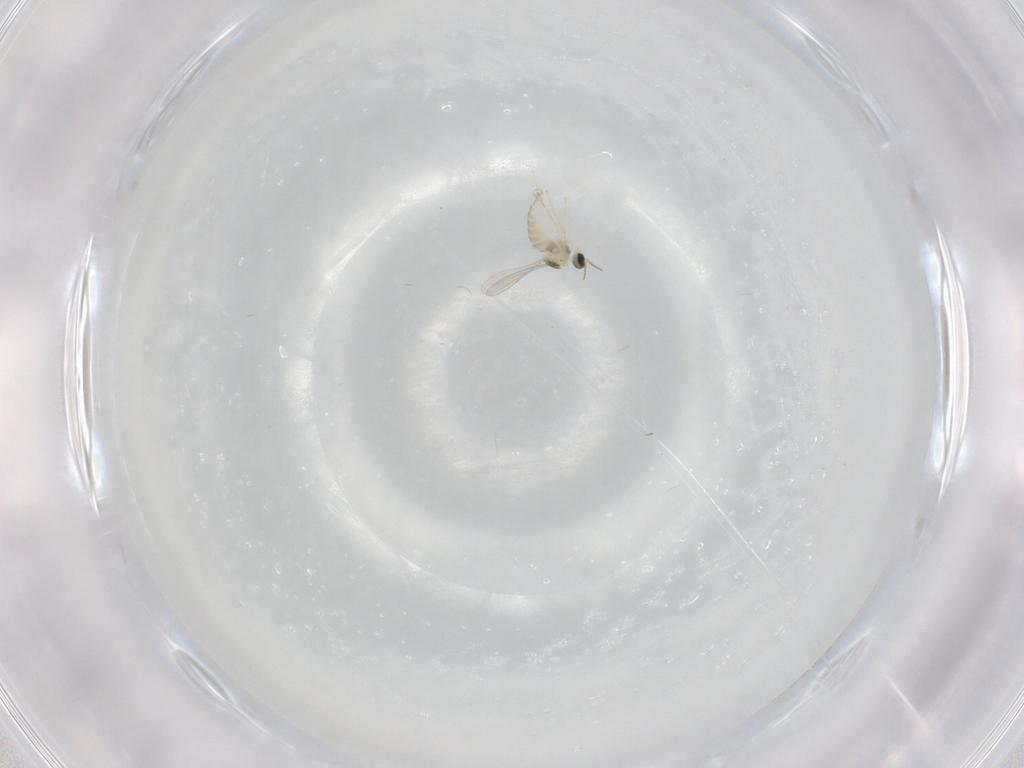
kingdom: Animalia
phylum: Arthropoda
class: Insecta
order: Diptera
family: Cecidomyiidae
